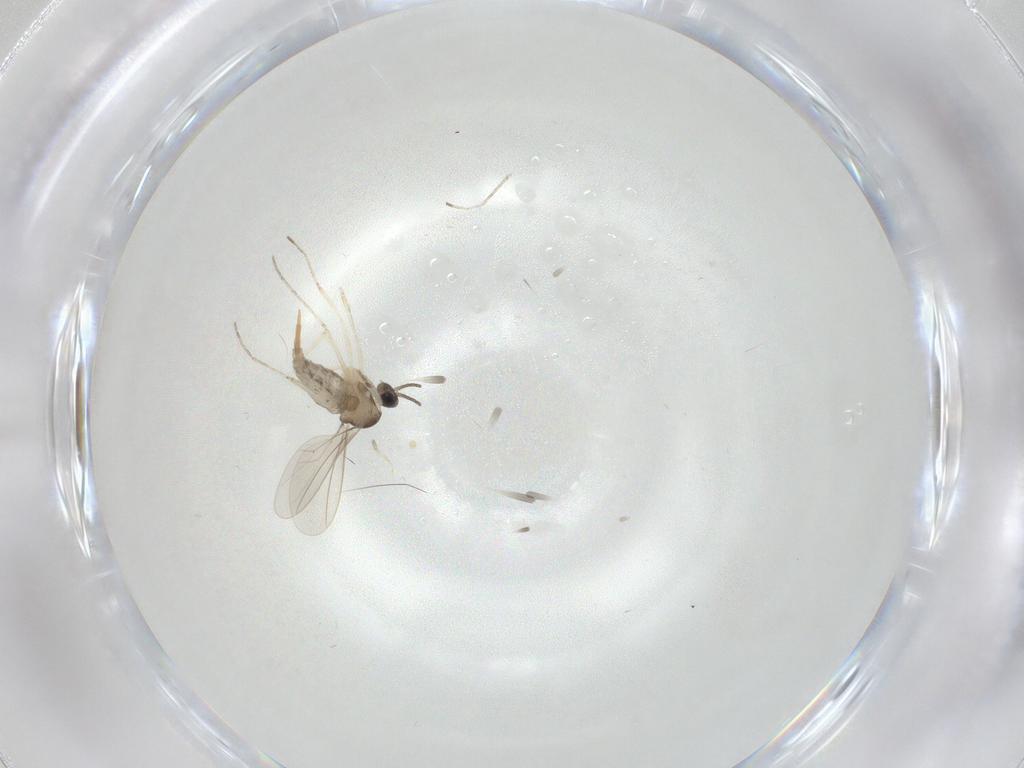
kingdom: Animalia
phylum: Arthropoda
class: Insecta
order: Diptera
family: Cecidomyiidae
